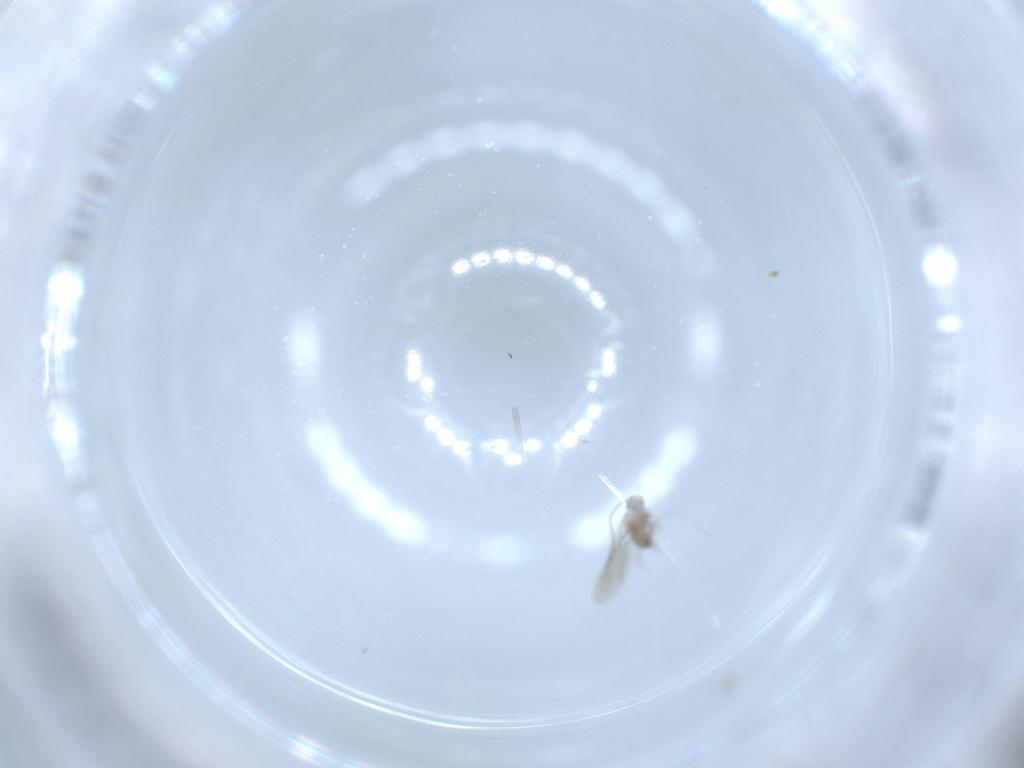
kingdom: Animalia
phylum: Arthropoda
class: Insecta
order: Diptera
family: Cecidomyiidae
